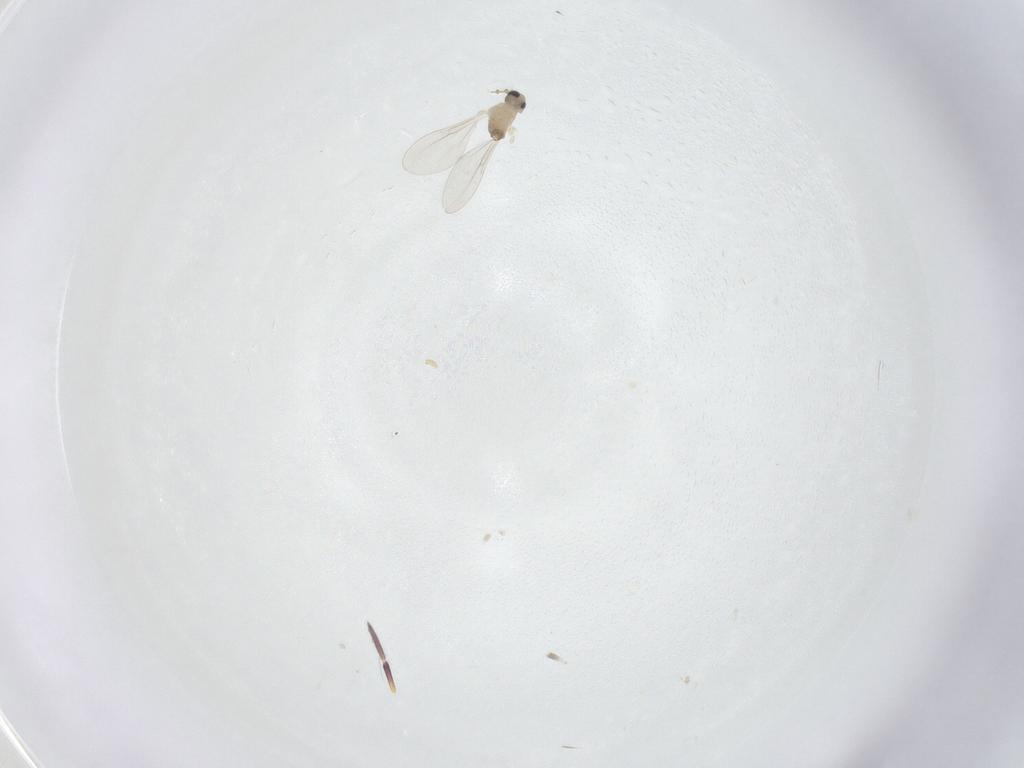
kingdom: Animalia
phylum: Arthropoda
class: Insecta
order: Diptera
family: Chironomidae
